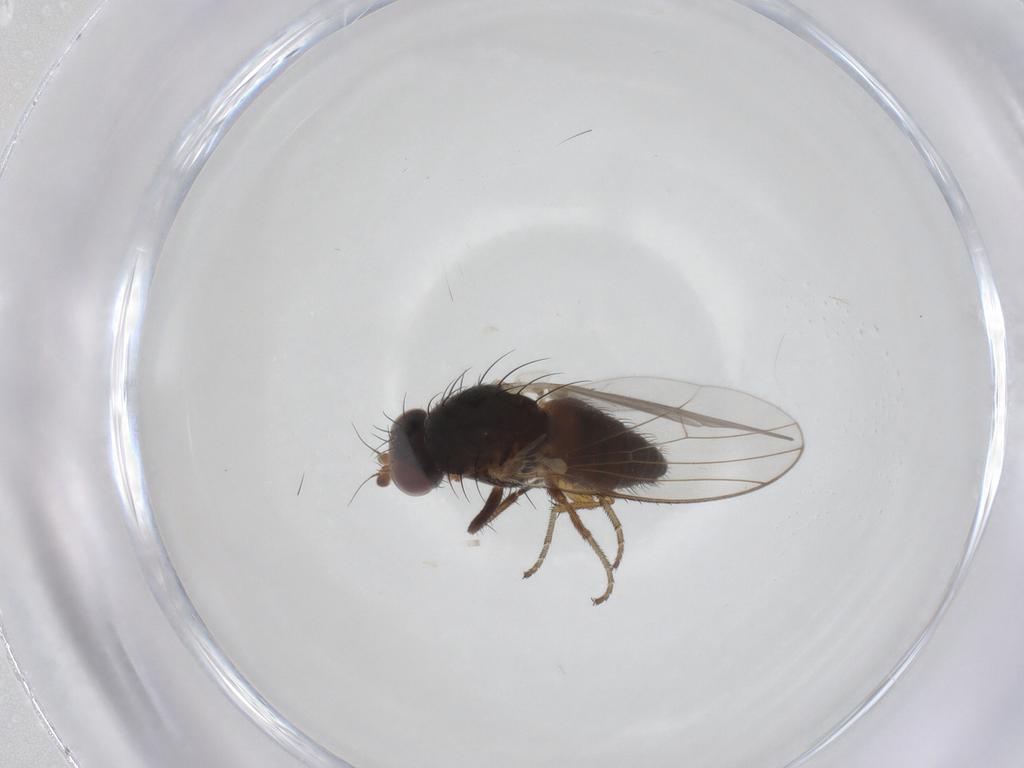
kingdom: Animalia
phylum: Arthropoda
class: Insecta
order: Diptera
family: Heleomyzidae
